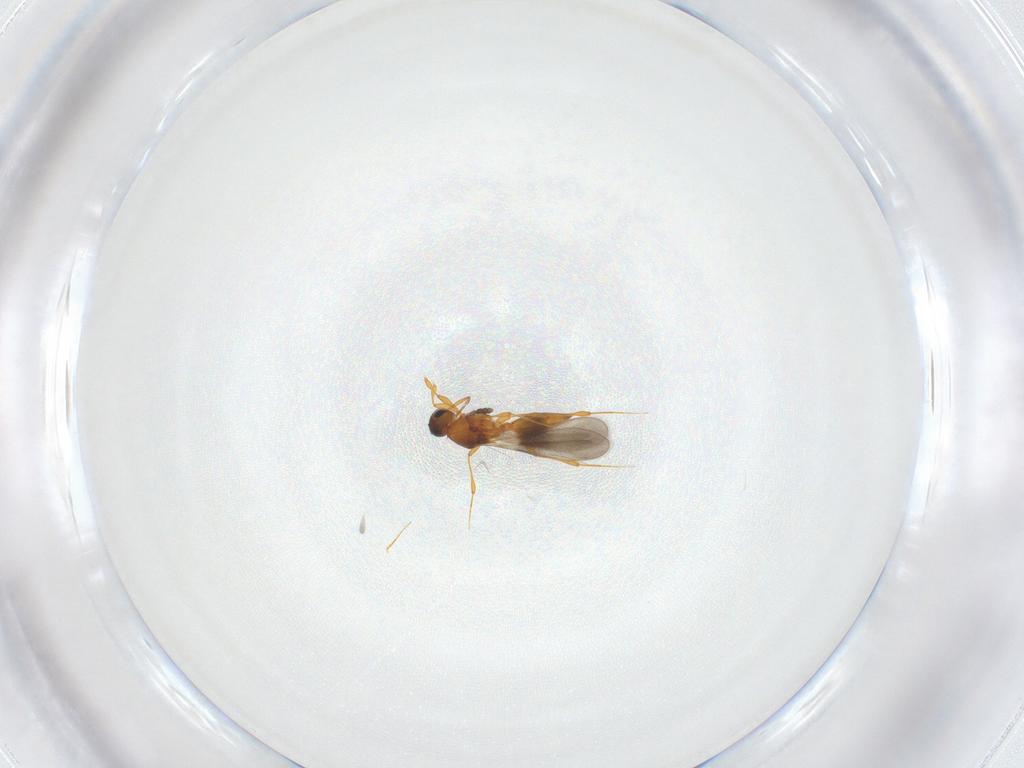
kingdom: Animalia
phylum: Arthropoda
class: Insecta
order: Hymenoptera
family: Platygastridae
